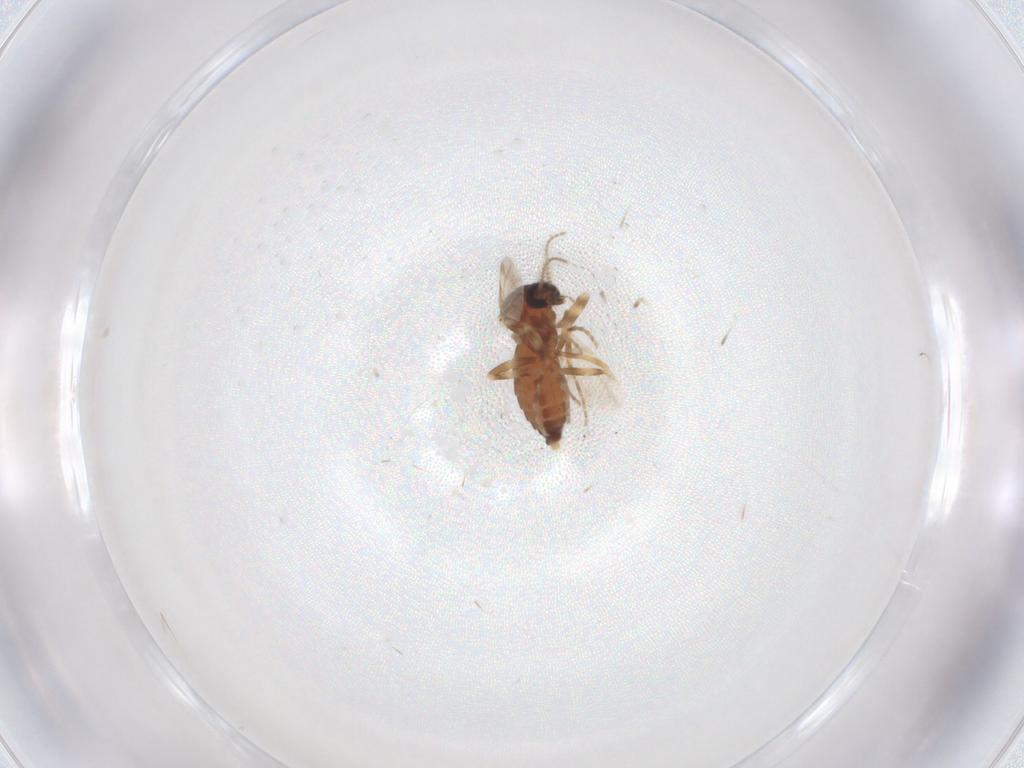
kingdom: Animalia
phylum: Arthropoda
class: Insecta
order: Diptera
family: Ceratopogonidae
